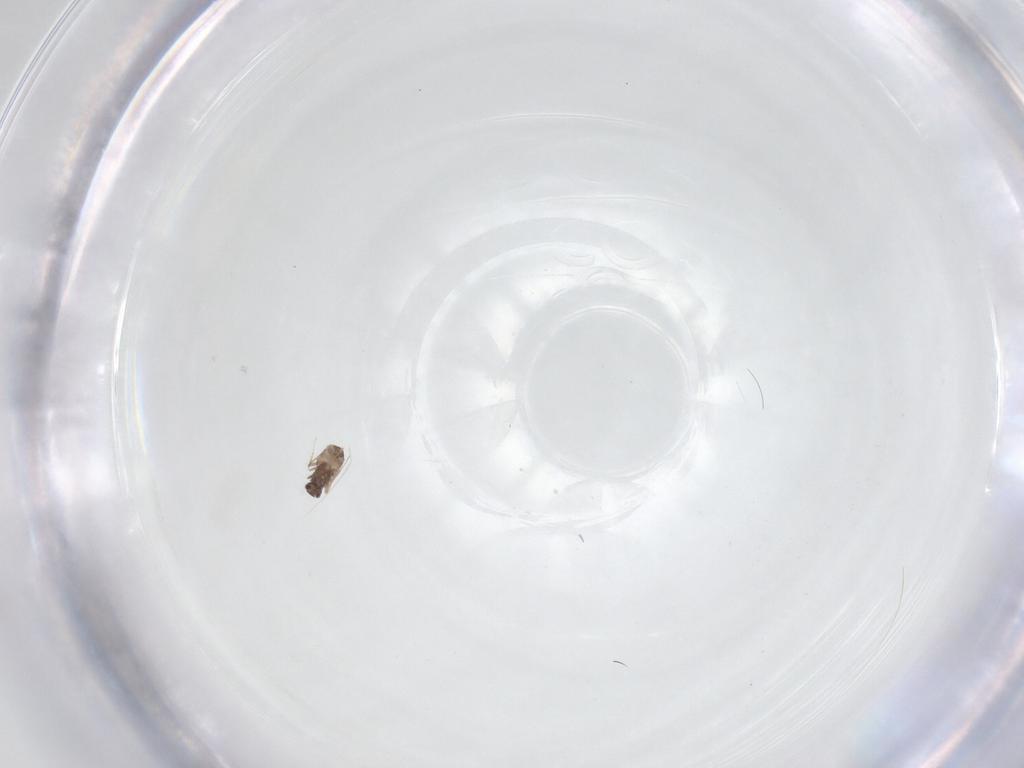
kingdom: Animalia
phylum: Arthropoda
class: Insecta
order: Hymenoptera
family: Mymaridae
